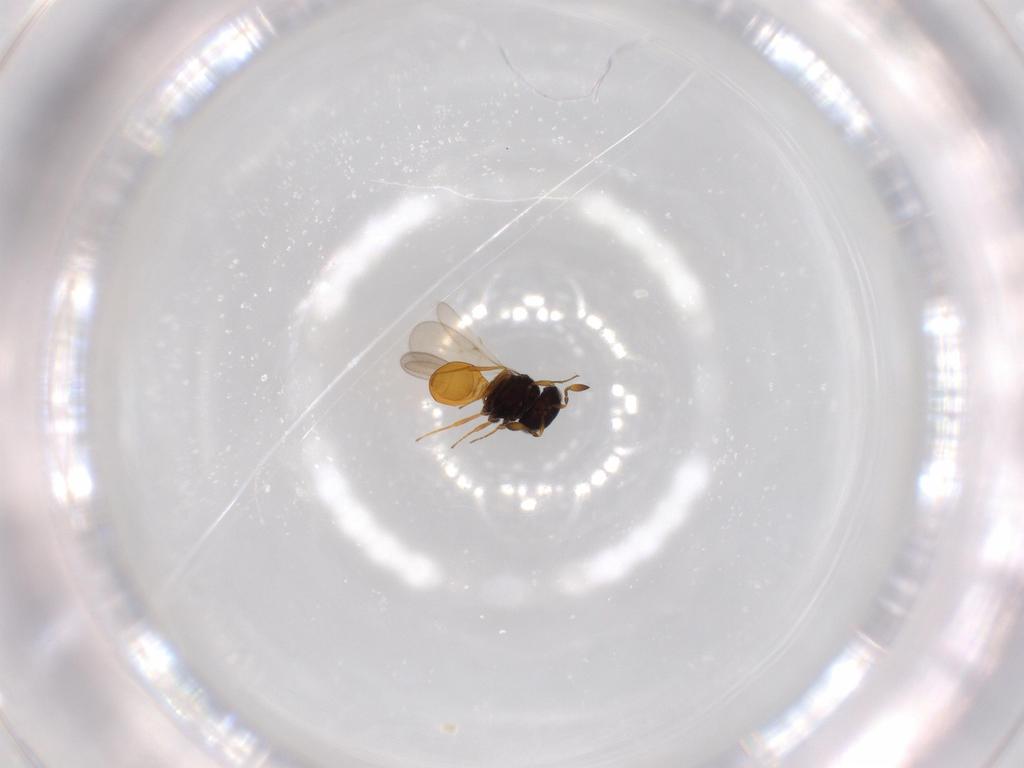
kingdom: Animalia
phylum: Arthropoda
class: Insecta
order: Hymenoptera
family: Scelionidae
